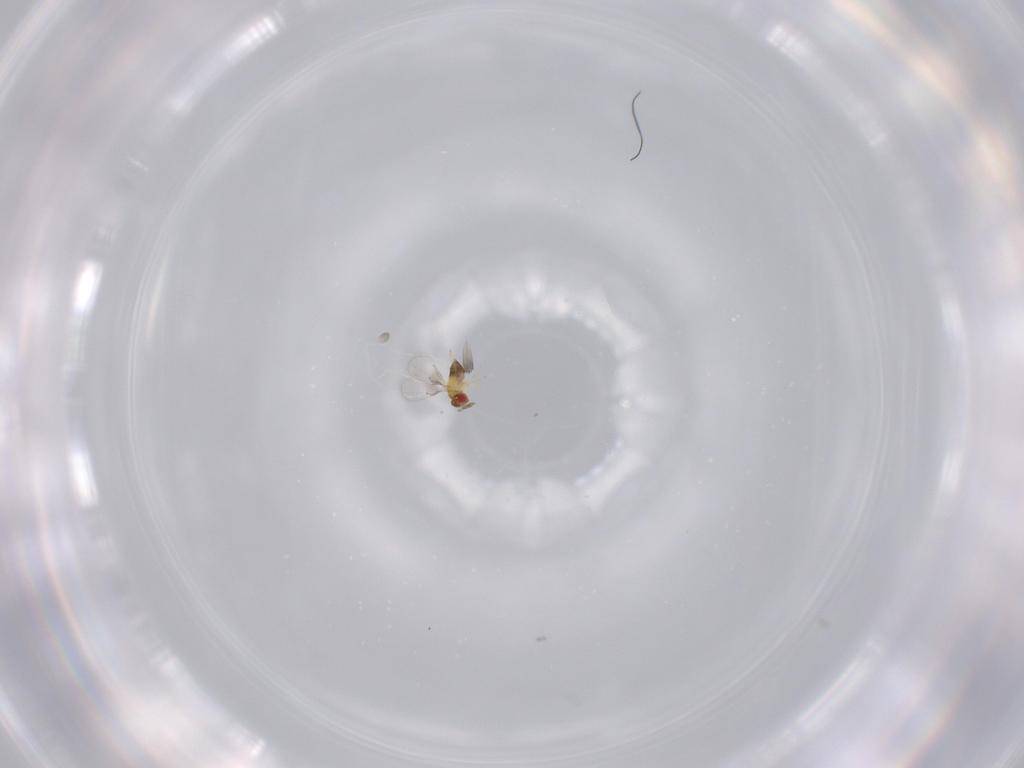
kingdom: Animalia
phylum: Arthropoda
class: Insecta
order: Hymenoptera
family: Trichogrammatidae
